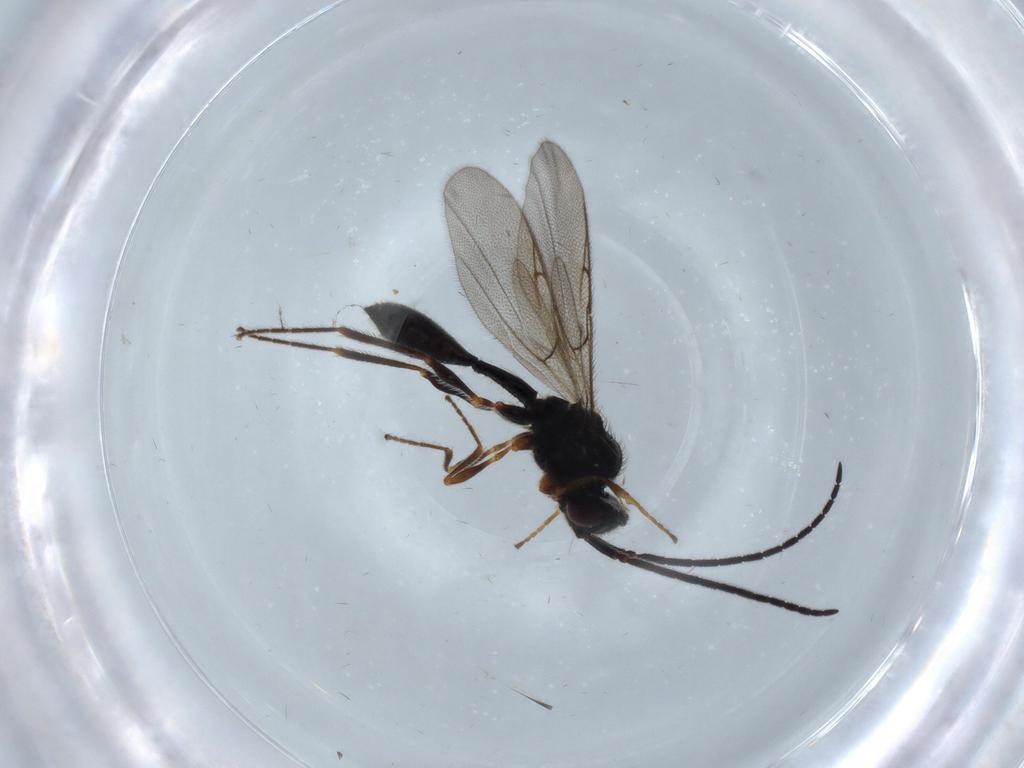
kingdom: Animalia
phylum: Arthropoda
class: Insecta
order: Hymenoptera
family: Diapriidae
